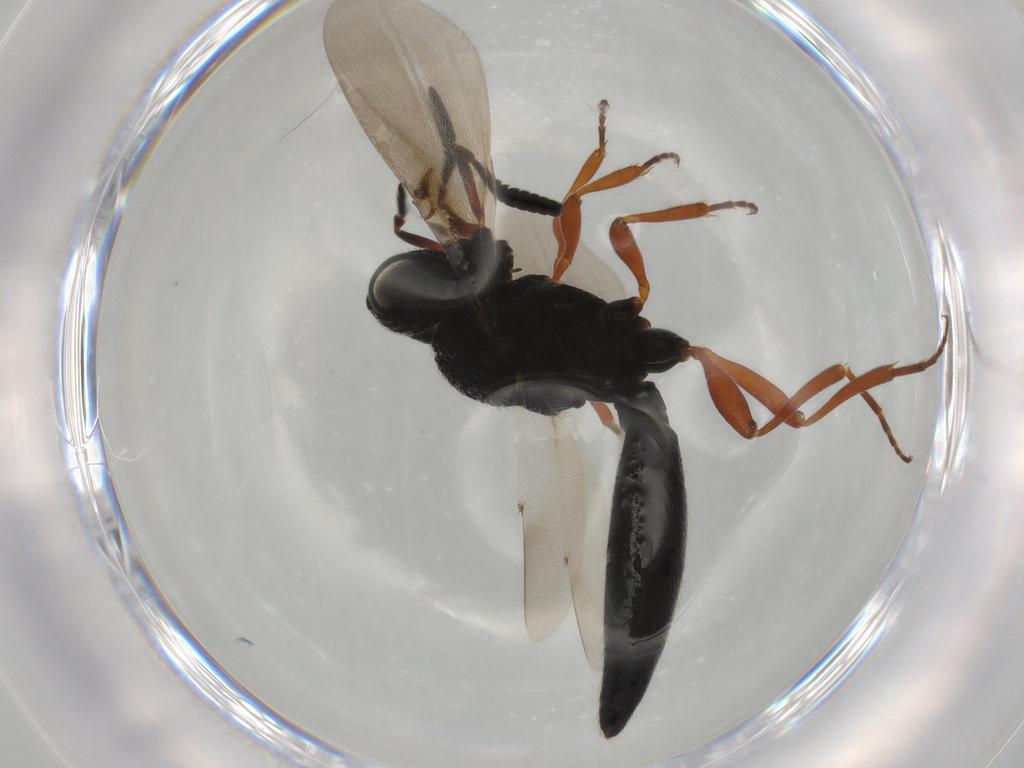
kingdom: Animalia
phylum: Arthropoda
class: Insecta
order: Hymenoptera
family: Scelionidae
